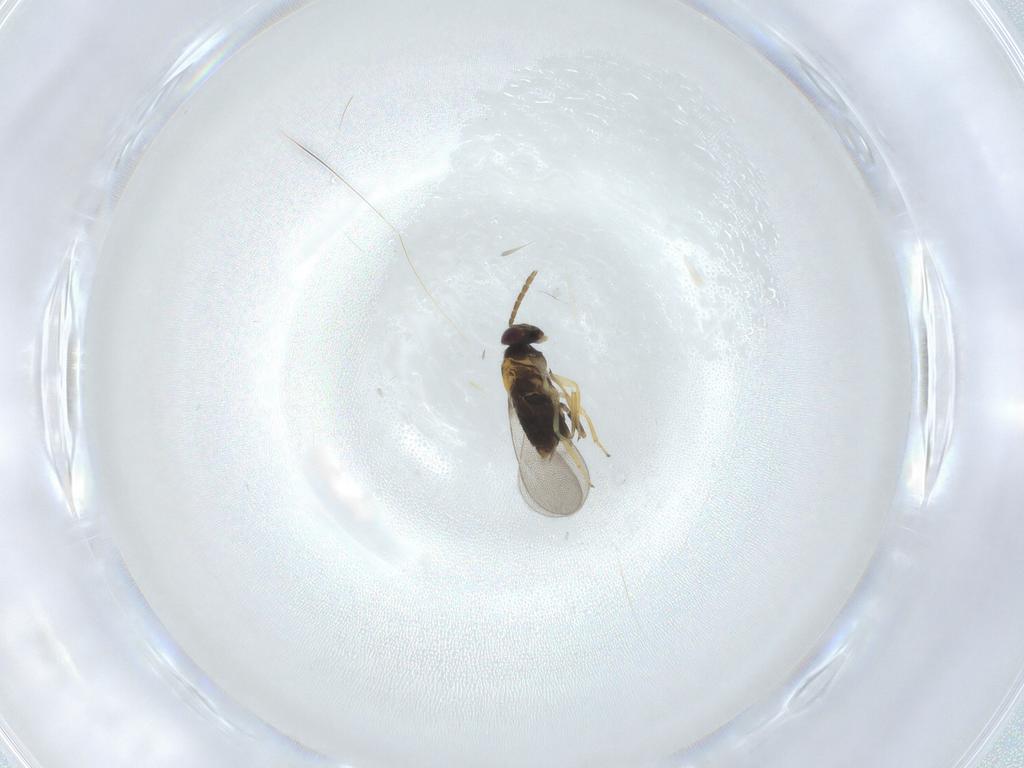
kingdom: Animalia
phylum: Arthropoda
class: Insecta
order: Hymenoptera
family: Aphelinidae
